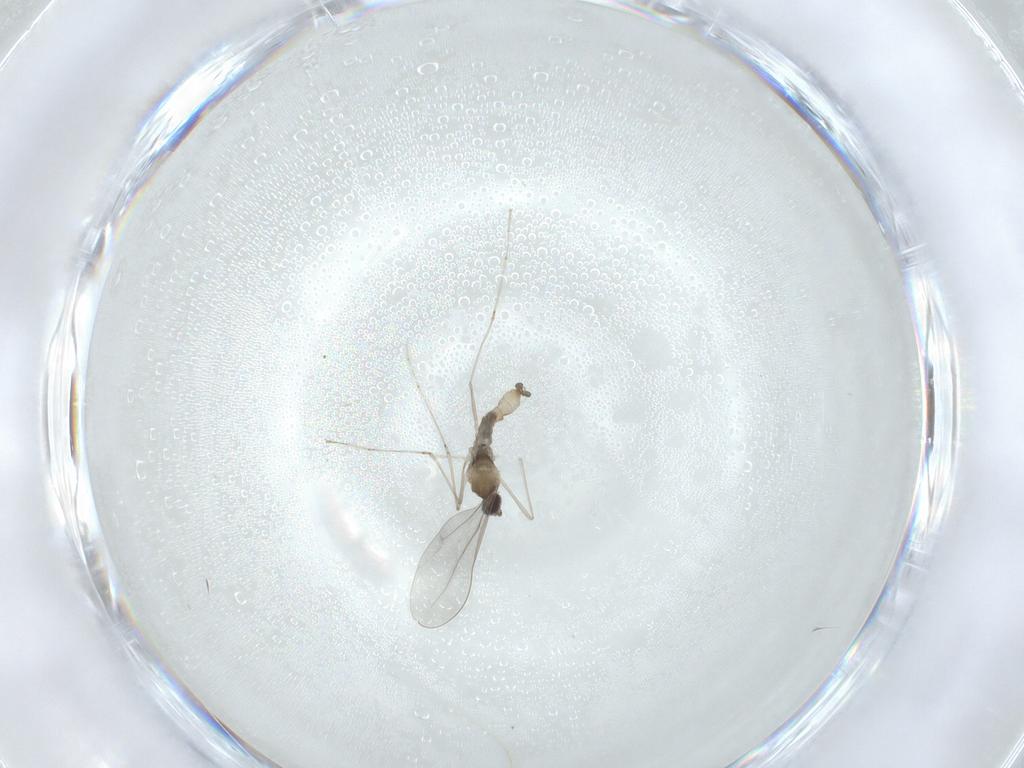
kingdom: Animalia
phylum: Arthropoda
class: Insecta
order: Diptera
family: Cecidomyiidae
